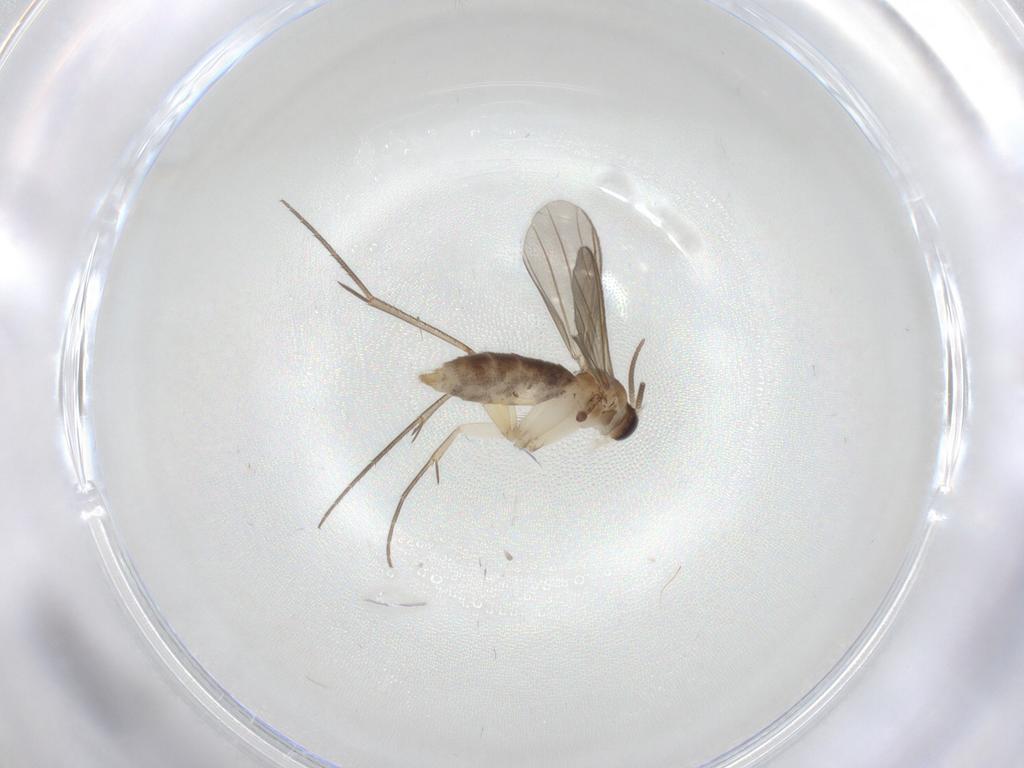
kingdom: Animalia
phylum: Arthropoda
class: Insecta
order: Diptera
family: Mycetophilidae
